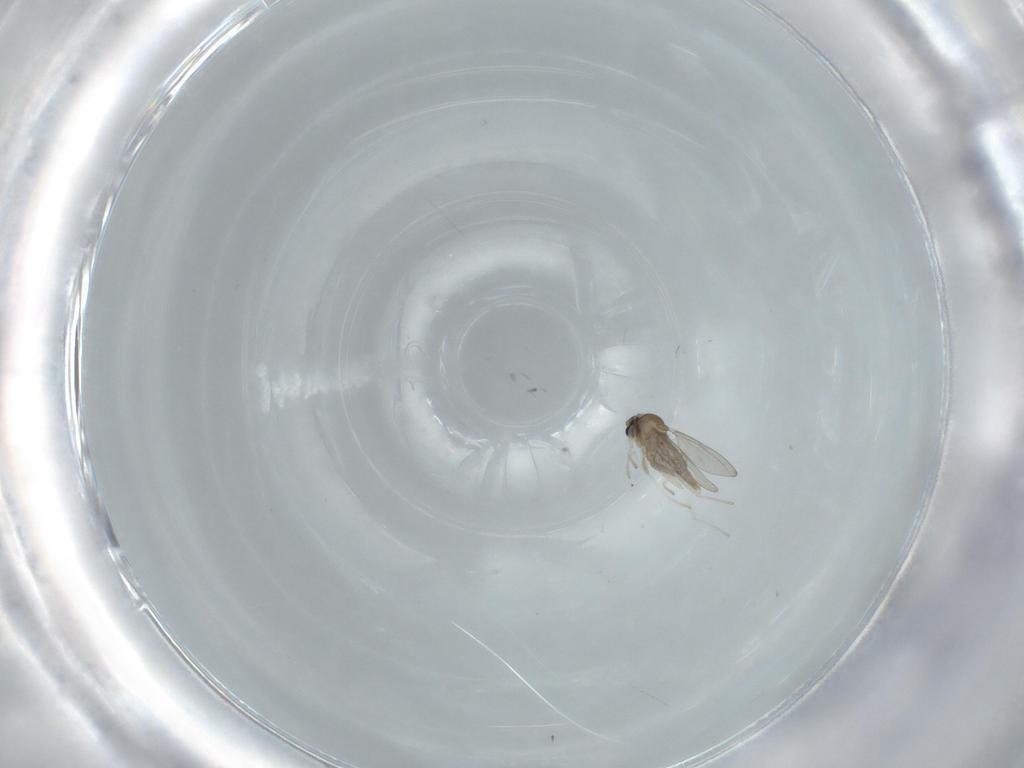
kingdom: Animalia
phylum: Arthropoda
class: Insecta
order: Diptera
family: Cecidomyiidae
